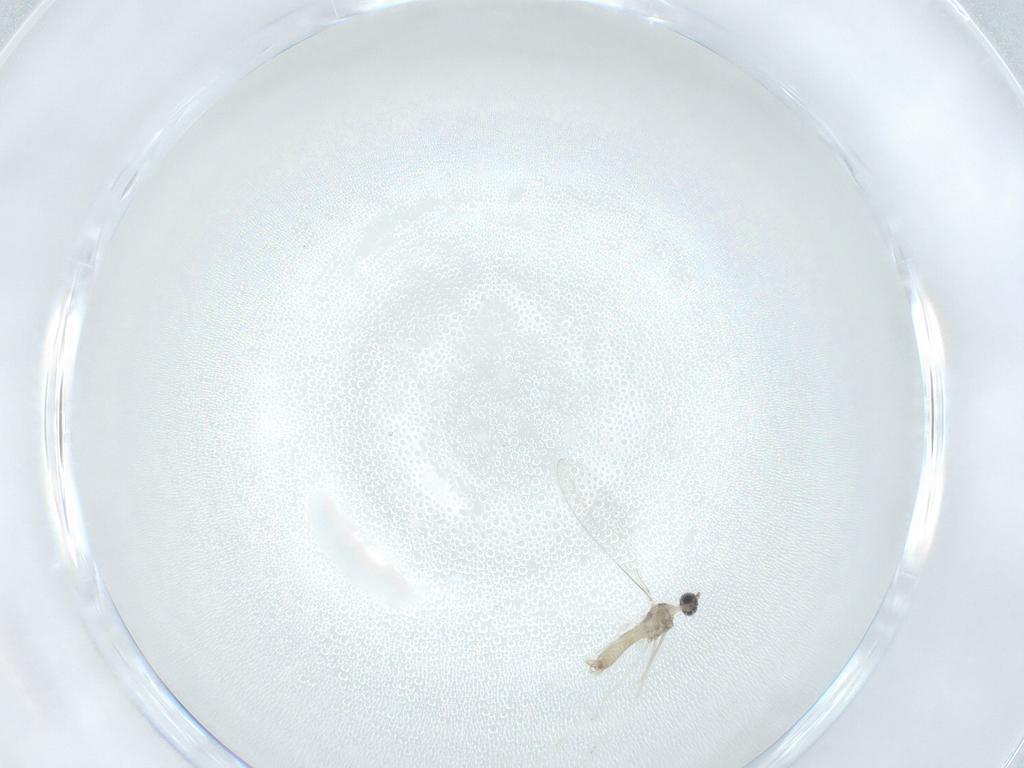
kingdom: Animalia
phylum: Arthropoda
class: Insecta
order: Diptera
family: Cecidomyiidae
